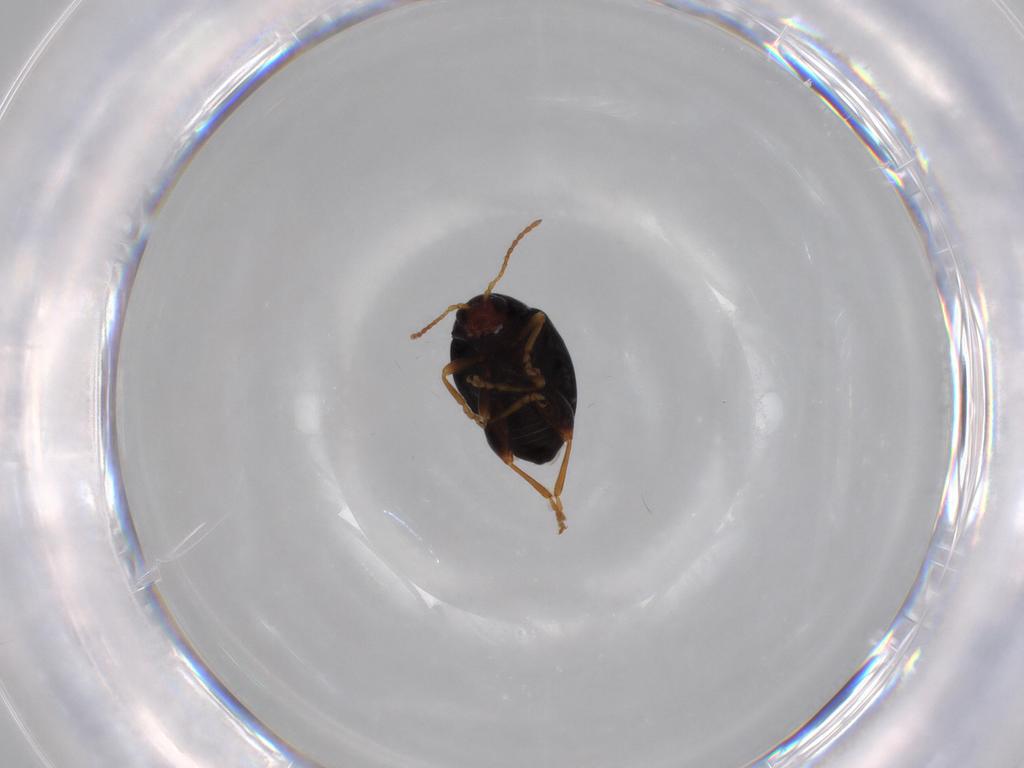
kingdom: Animalia
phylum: Arthropoda
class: Insecta
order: Coleoptera
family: Chrysomelidae
